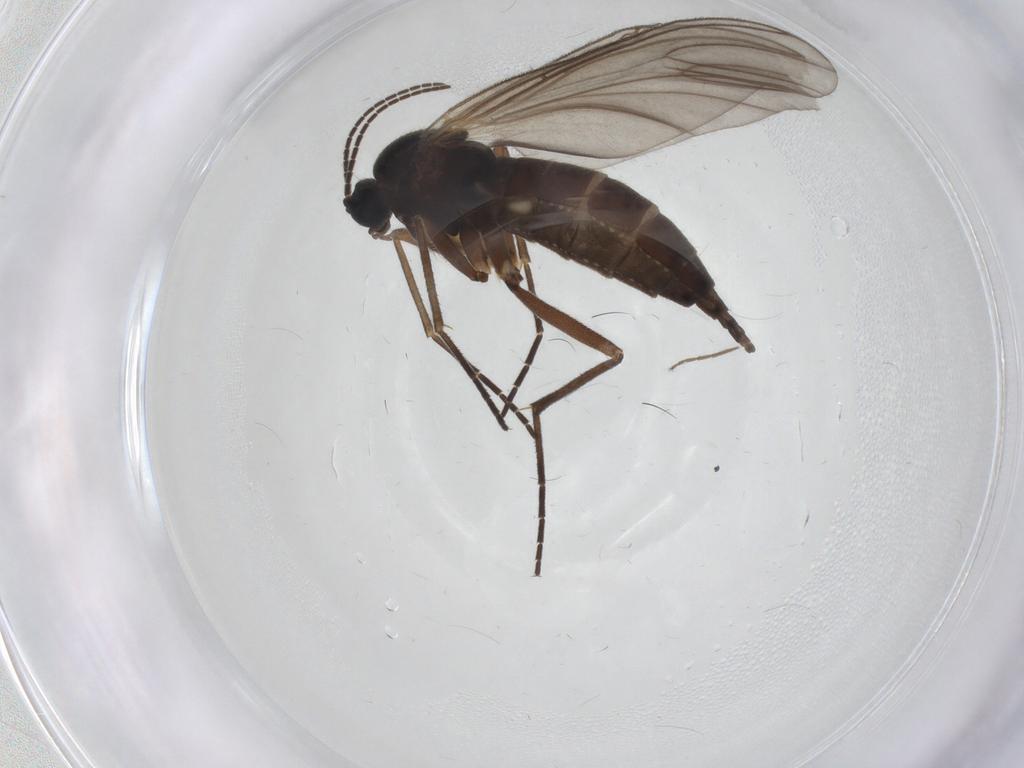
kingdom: Animalia
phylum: Arthropoda
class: Insecta
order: Diptera
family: Sciaridae
